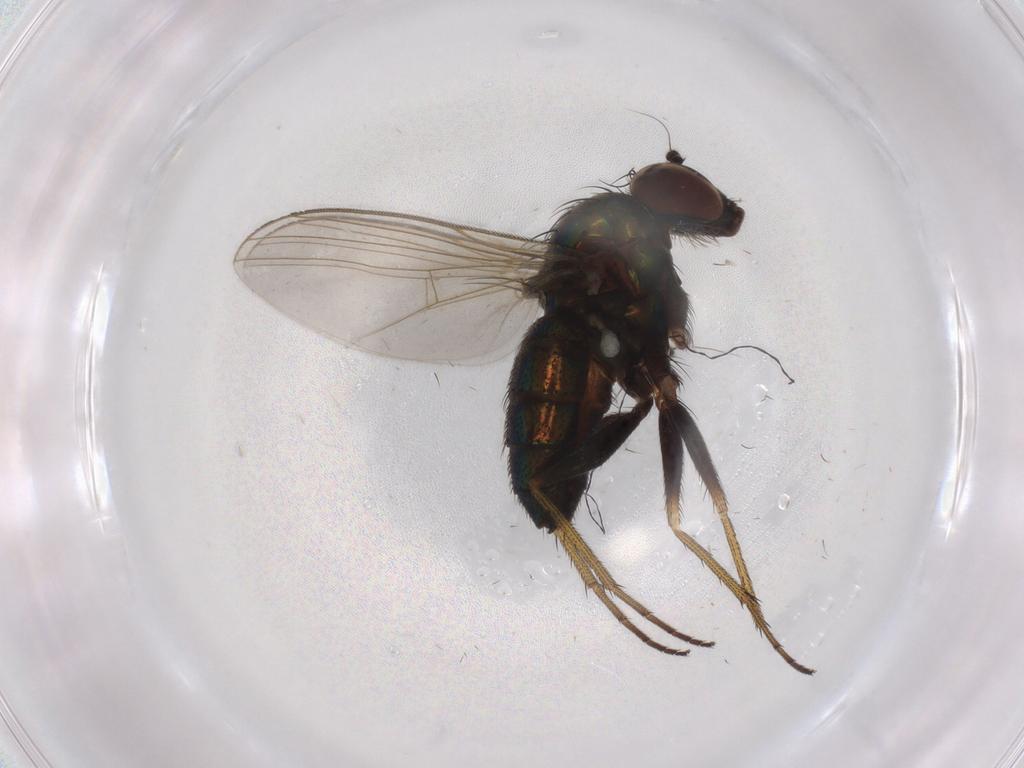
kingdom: Animalia
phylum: Arthropoda
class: Insecta
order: Diptera
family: Dolichopodidae
